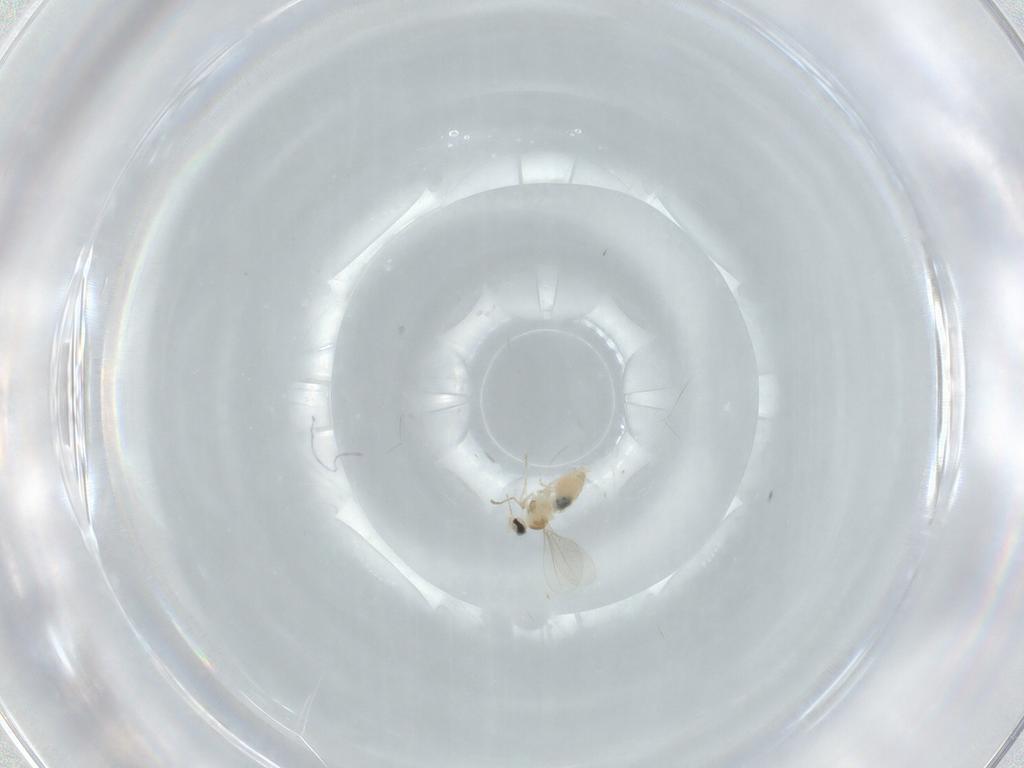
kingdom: Animalia
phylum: Arthropoda
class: Insecta
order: Diptera
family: Cecidomyiidae
